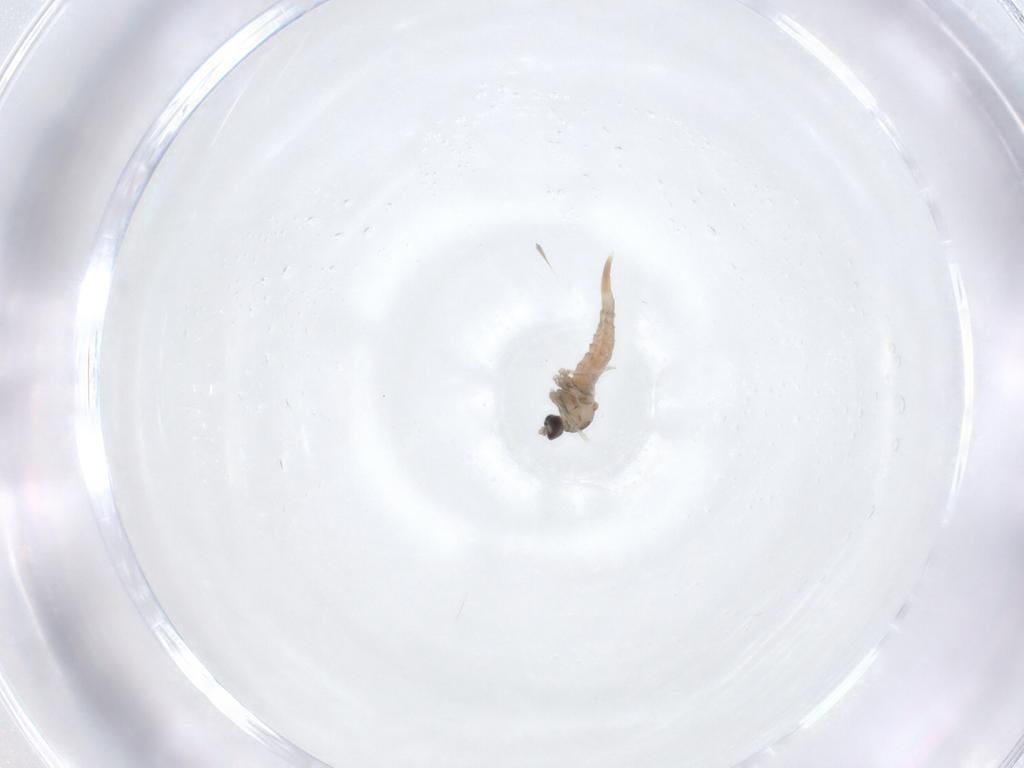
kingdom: Animalia
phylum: Arthropoda
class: Insecta
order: Diptera
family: Cecidomyiidae
